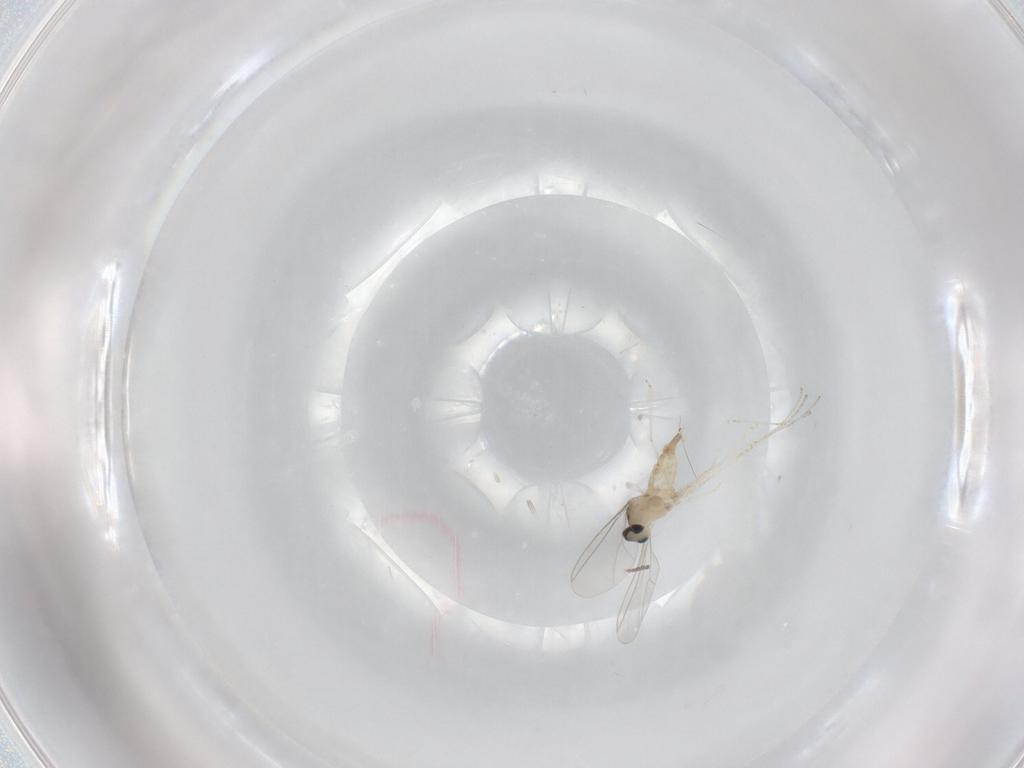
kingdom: Animalia
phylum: Arthropoda
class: Insecta
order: Diptera
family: Cecidomyiidae
